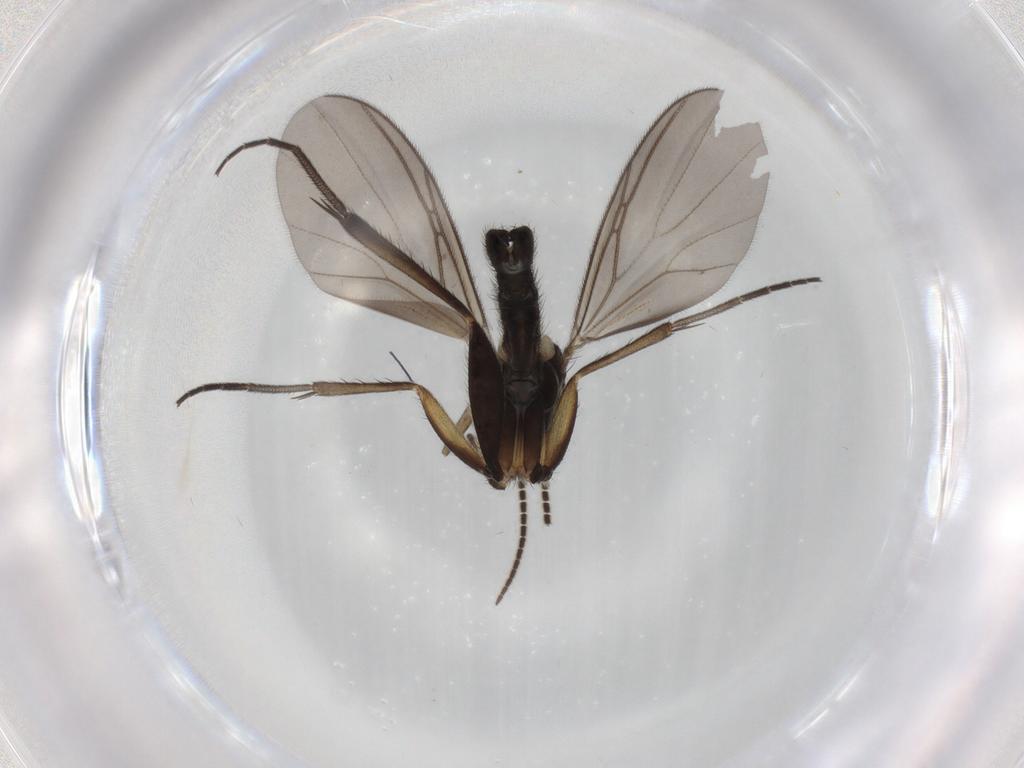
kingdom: Animalia
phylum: Arthropoda
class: Insecta
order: Diptera
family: Mycetophilidae
